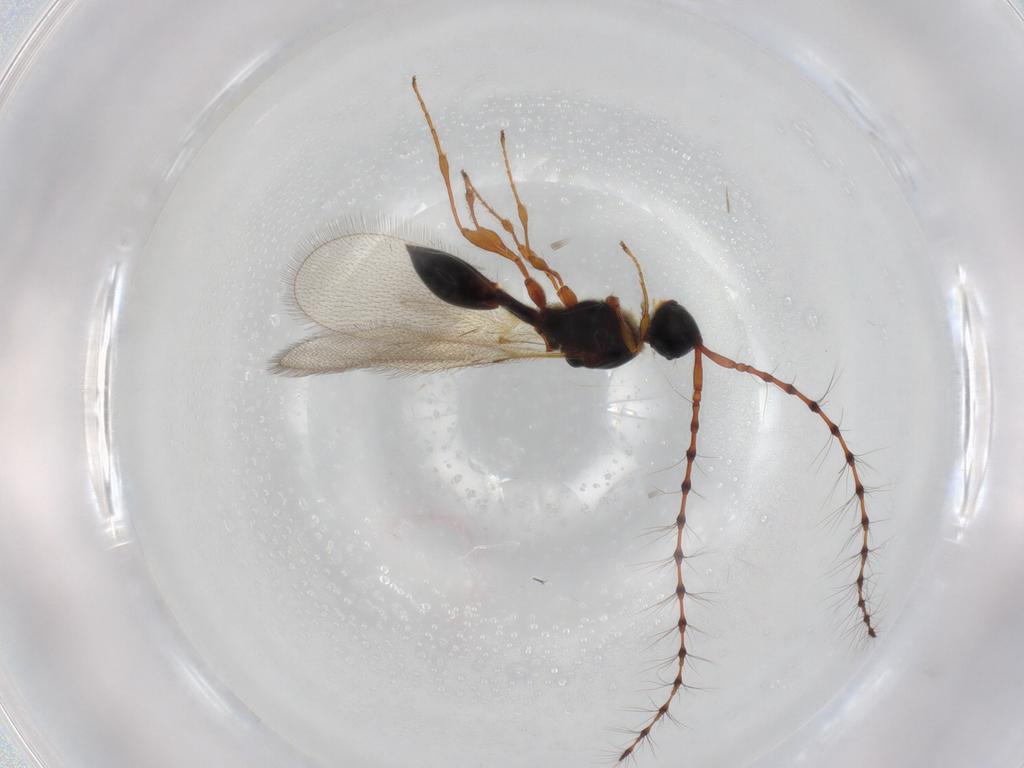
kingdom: Animalia
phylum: Arthropoda
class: Insecta
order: Hymenoptera
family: Diapriidae
